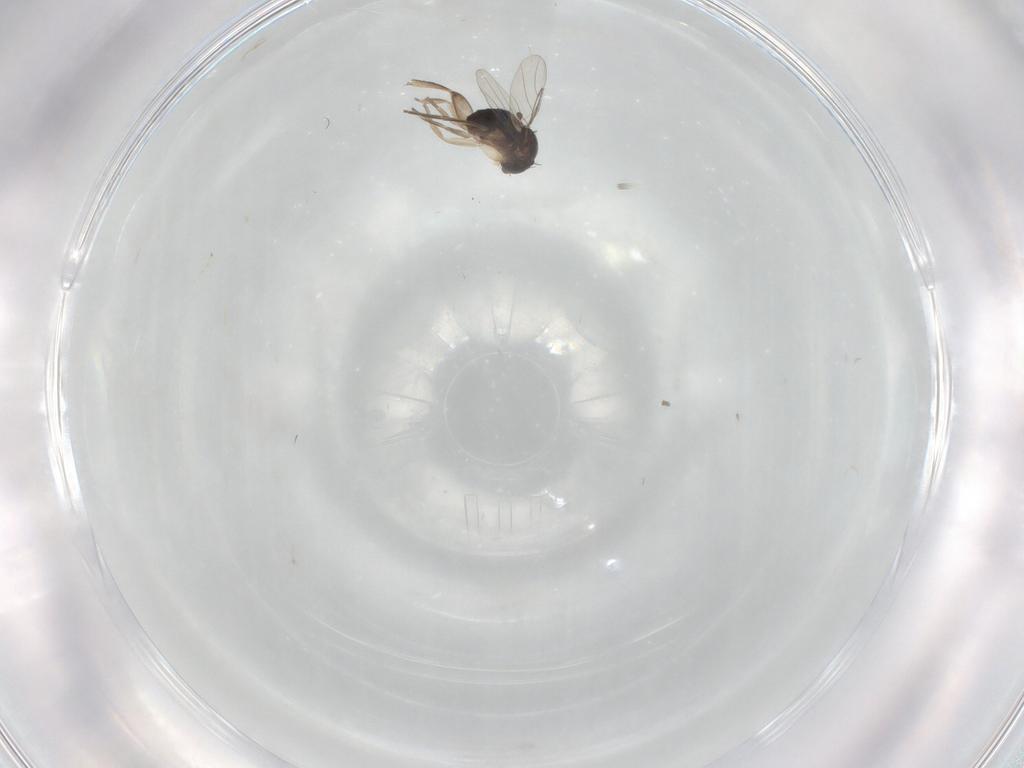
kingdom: Animalia
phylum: Arthropoda
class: Insecta
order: Diptera
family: Phoridae
